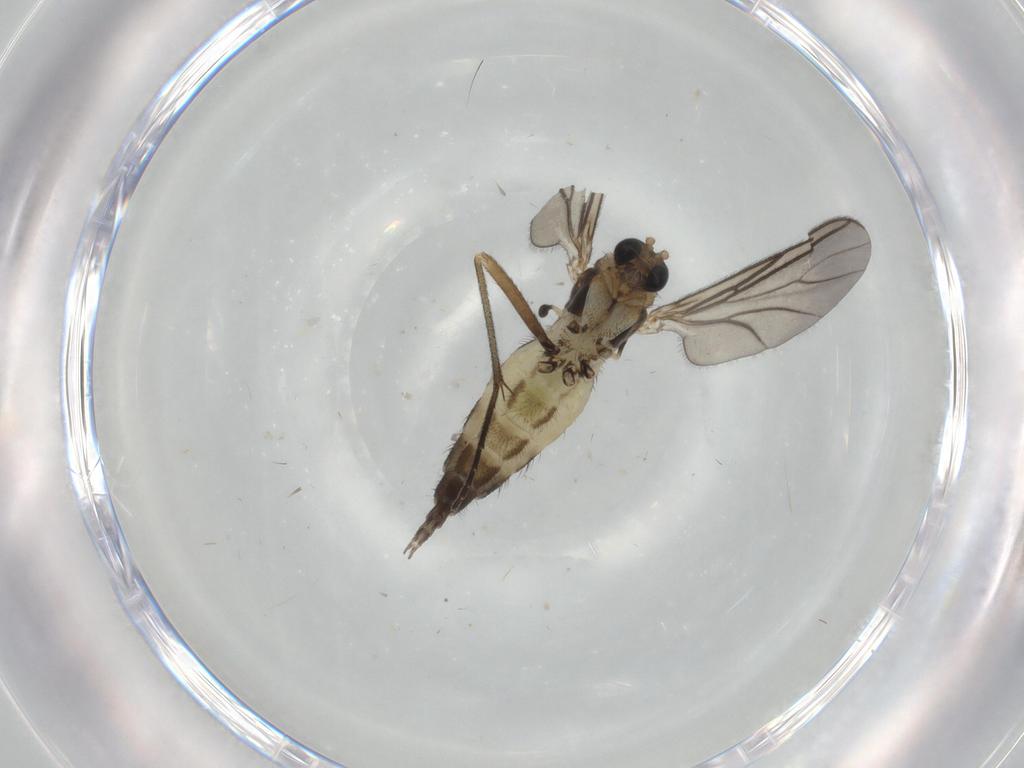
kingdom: Animalia
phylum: Arthropoda
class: Insecta
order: Diptera
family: Sciaridae
